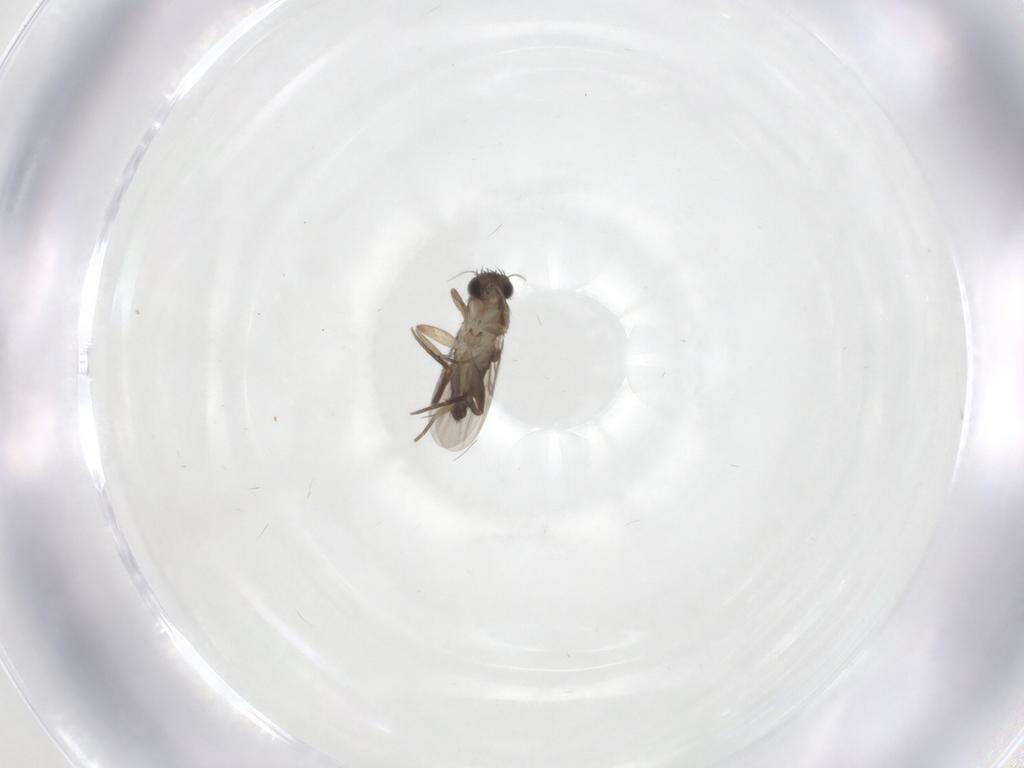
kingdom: Animalia
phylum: Arthropoda
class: Insecta
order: Diptera
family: Phoridae
